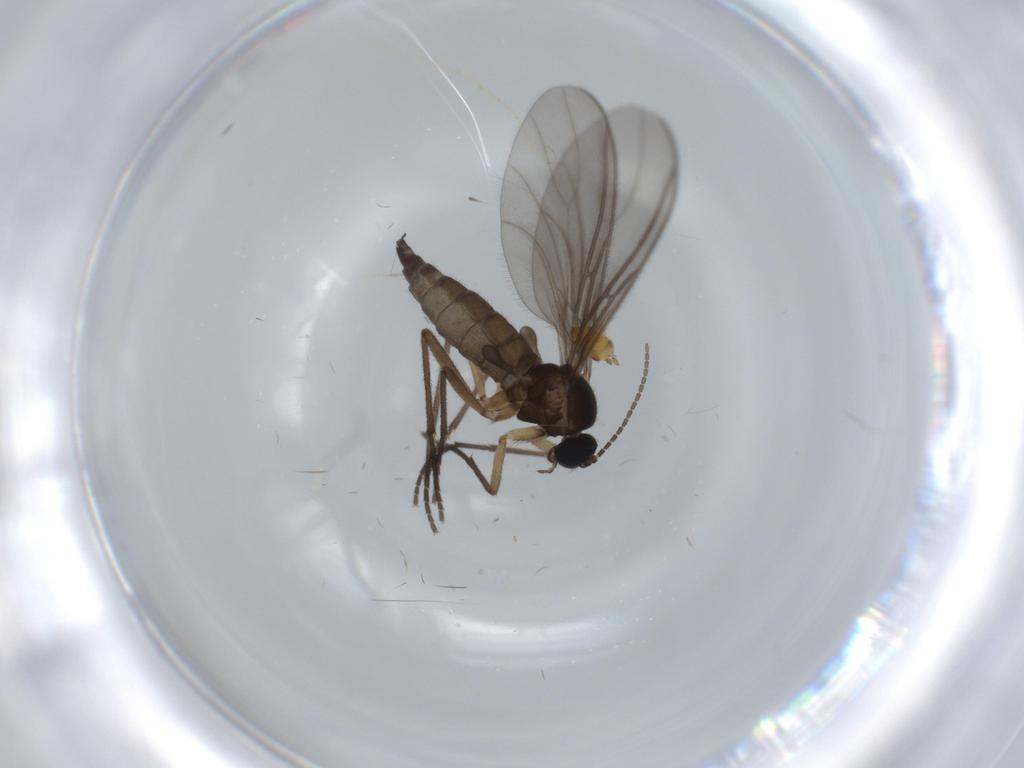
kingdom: Animalia
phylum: Arthropoda
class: Insecta
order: Diptera
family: Sciaridae
